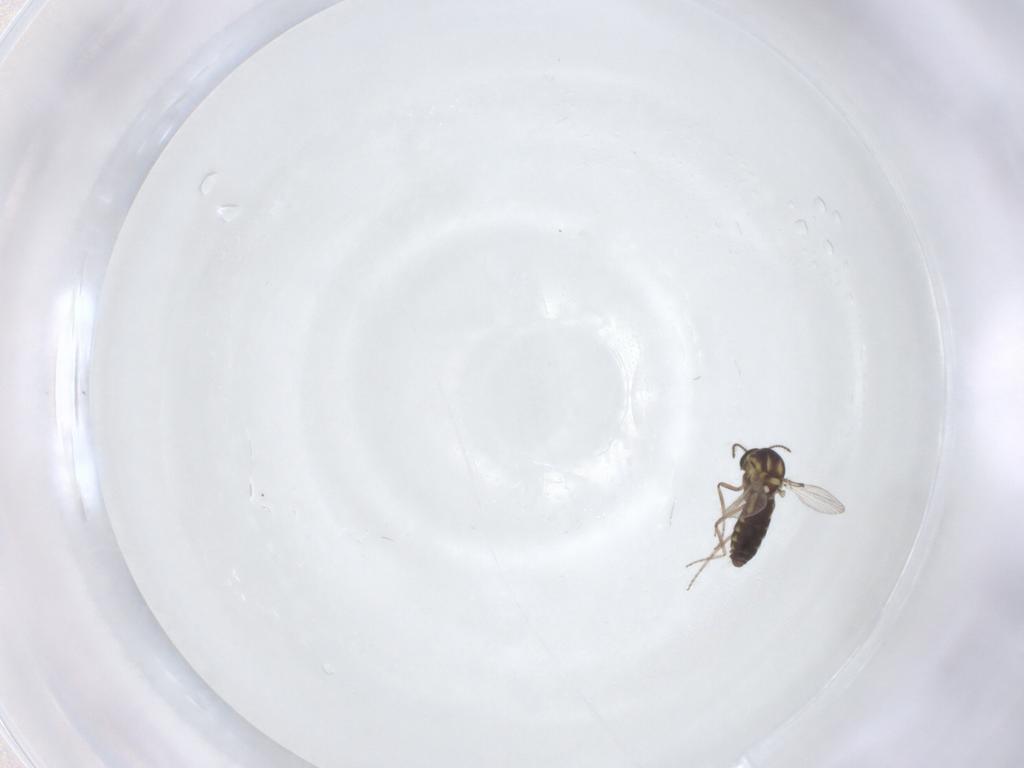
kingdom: Animalia
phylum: Arthropoda
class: Insecta
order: Diptera
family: Ceratopogonidae
